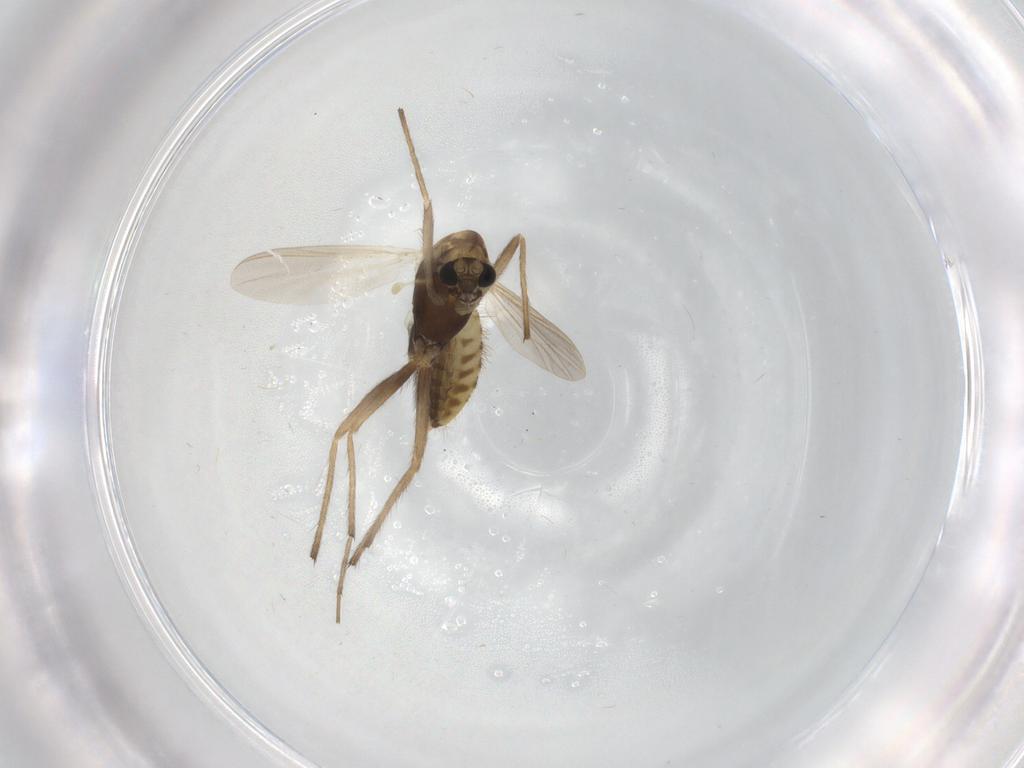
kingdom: Animalia
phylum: Arthropoda
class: Insecta
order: Diptera
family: Chironomidae
